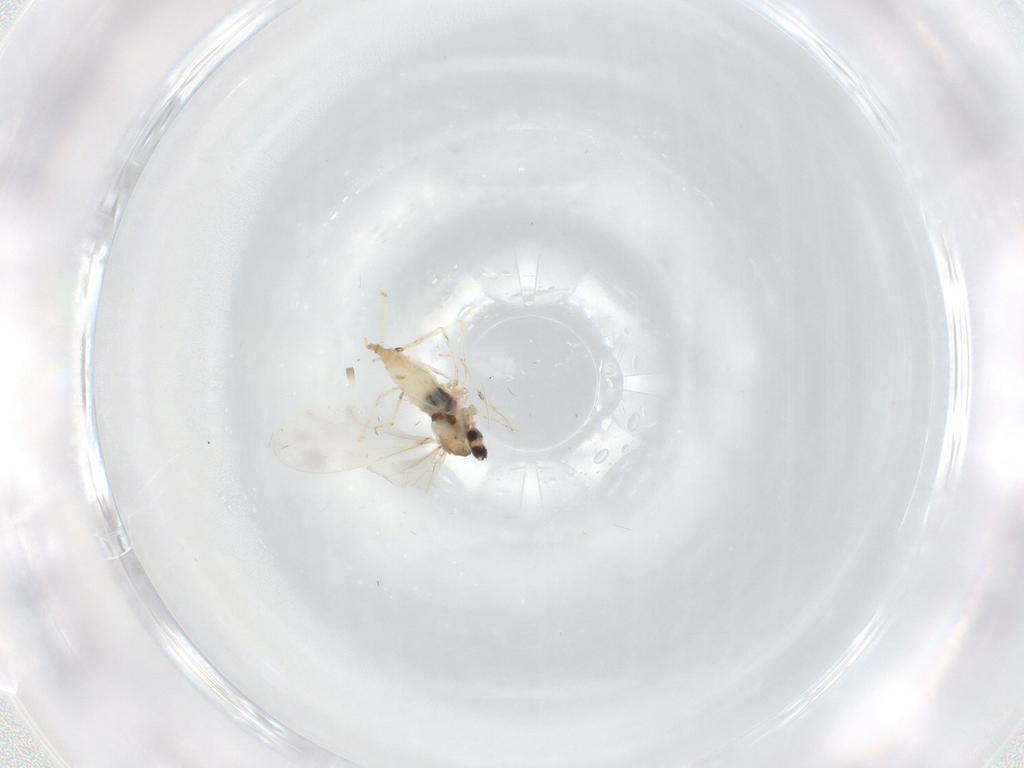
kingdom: Animalia
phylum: Arthropoda
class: Insecta
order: Diptera
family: Cecidomyiidae
